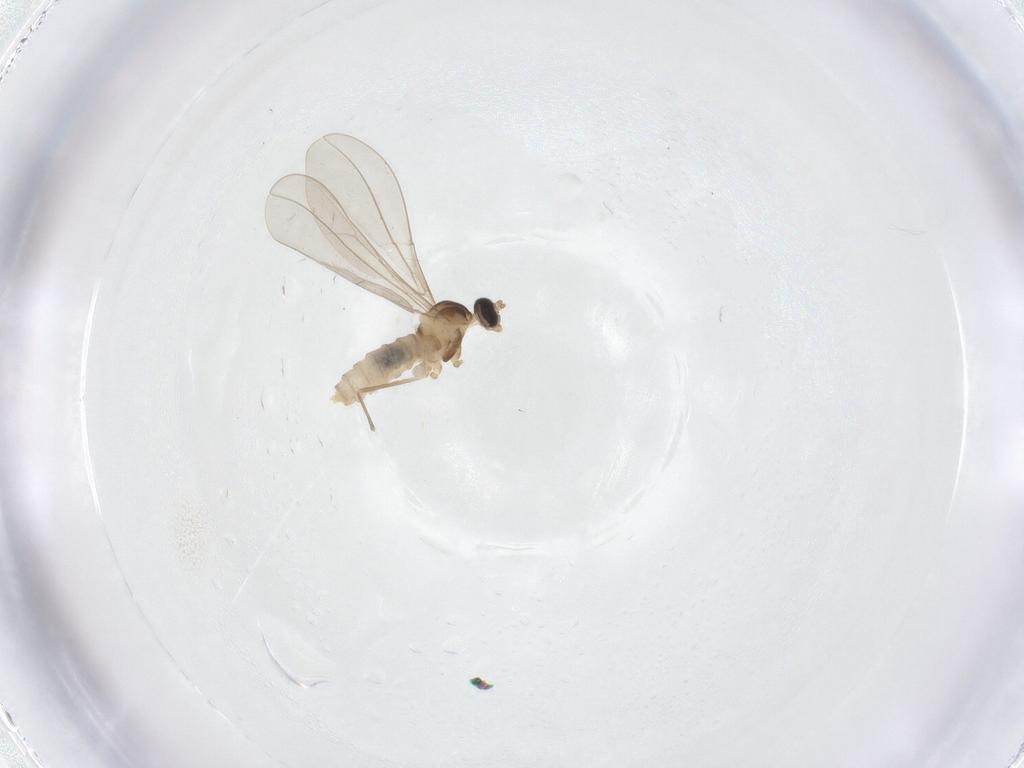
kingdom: Animalia
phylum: Arthropoda
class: Insecta
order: Diptera
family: Cecidomyiidae
